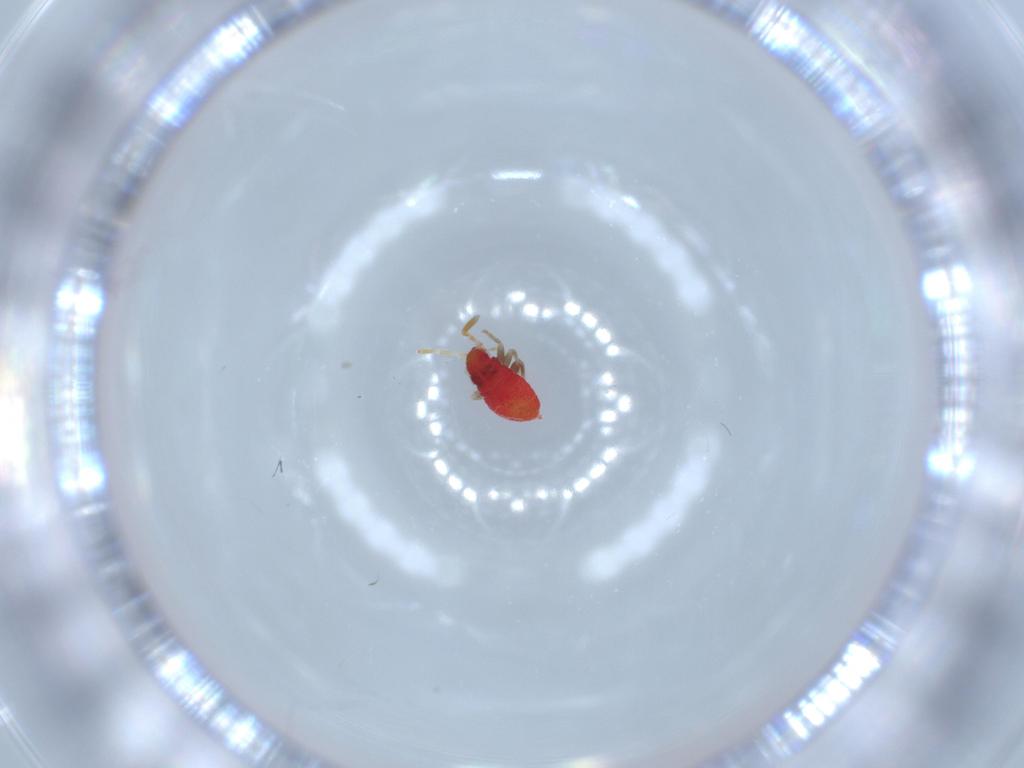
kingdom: Animalia
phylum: Arthropoda
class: Insecta
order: Hemiptera
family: Miridae
